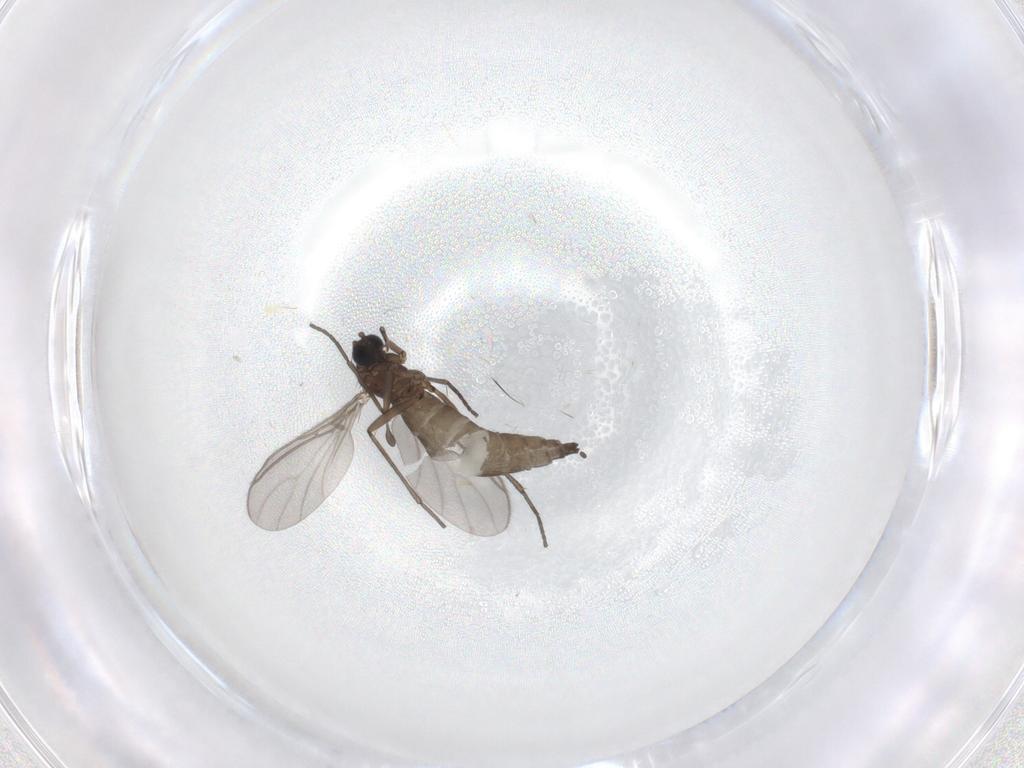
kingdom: Animalia
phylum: Arthropoda
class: Insecta
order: Diptera
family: Sciaridae
